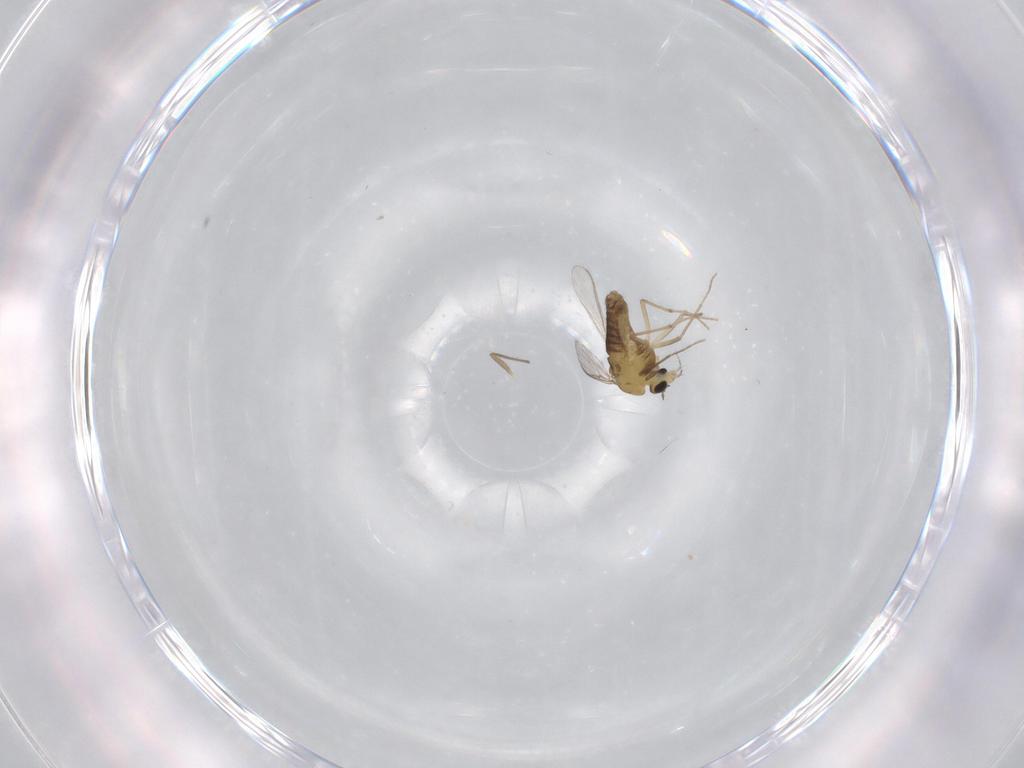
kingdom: Animalia
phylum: Arthropoda
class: Insecta
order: Diptera
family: Chironomidae
